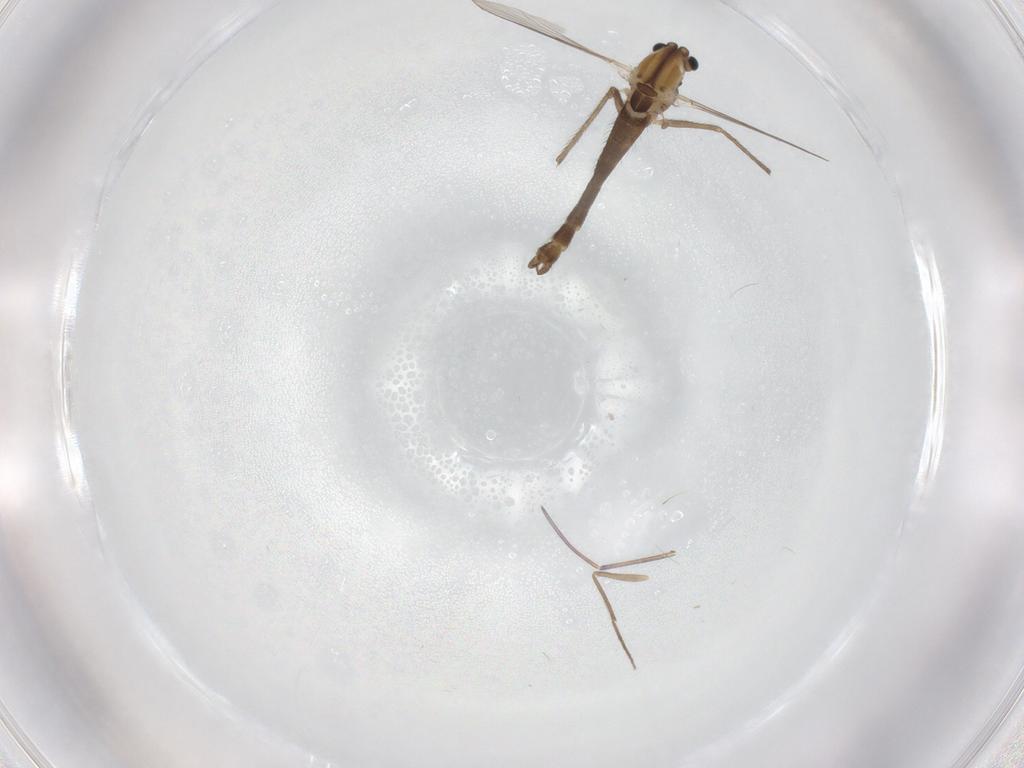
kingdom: Animalia
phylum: Arthropoda
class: Insecta
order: Diptera
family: Chironomidae
